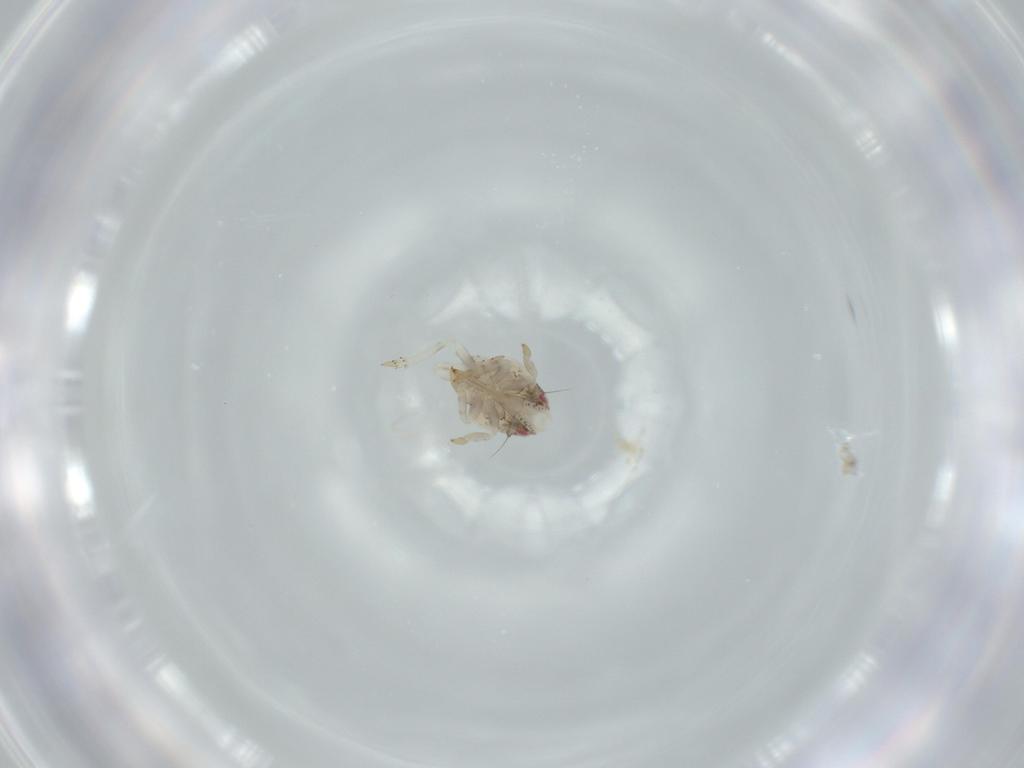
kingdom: Animalia
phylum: Arthropoda
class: Insecta
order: Hemiptera
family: Acanaloniidae
